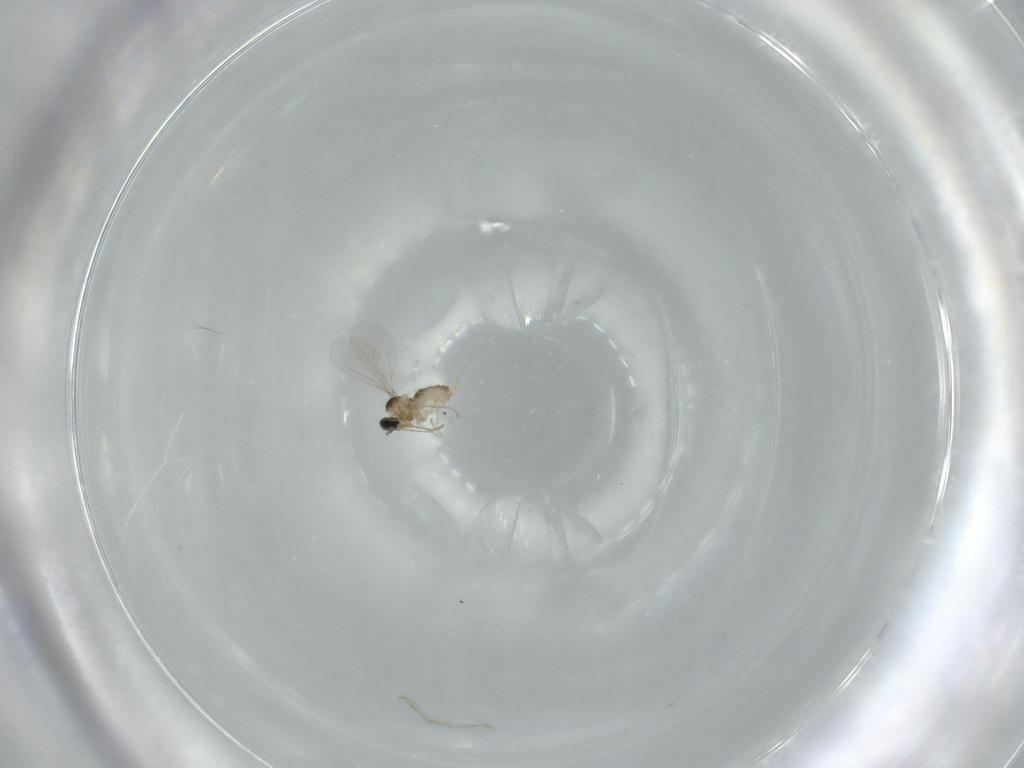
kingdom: Animalia
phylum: Arthropoda
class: Insecta
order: Diptera
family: Cecidomyiidae
